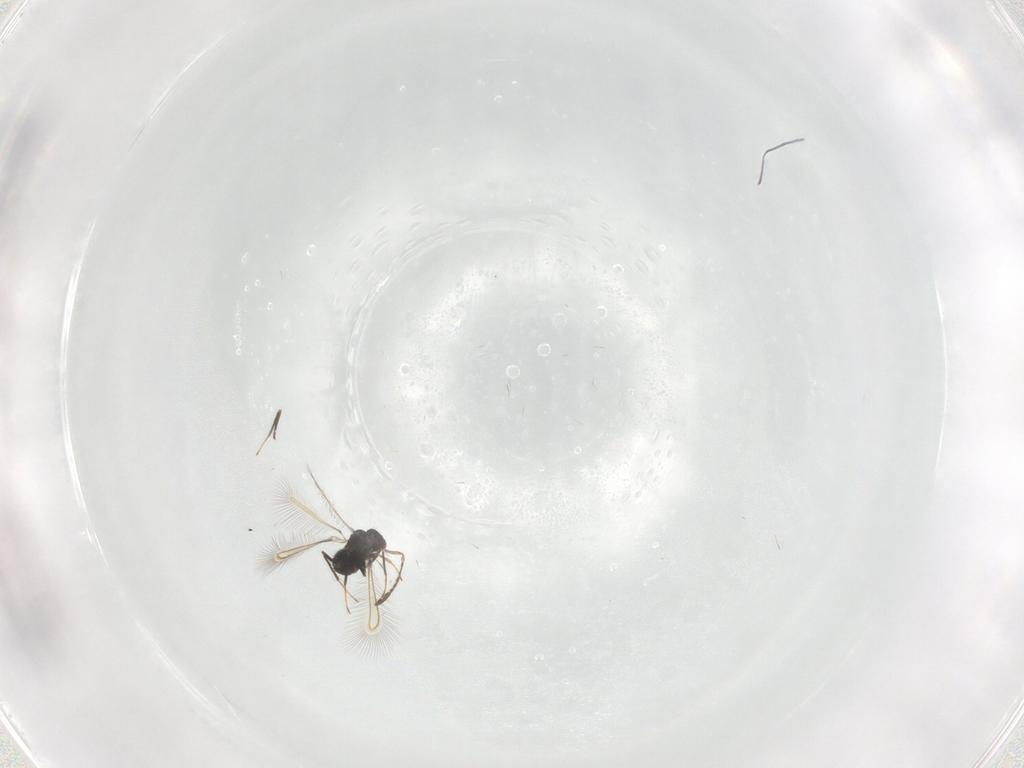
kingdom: Animalia
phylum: Arthropoda
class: Insecta
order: Hymenoptera
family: Mymaridae
